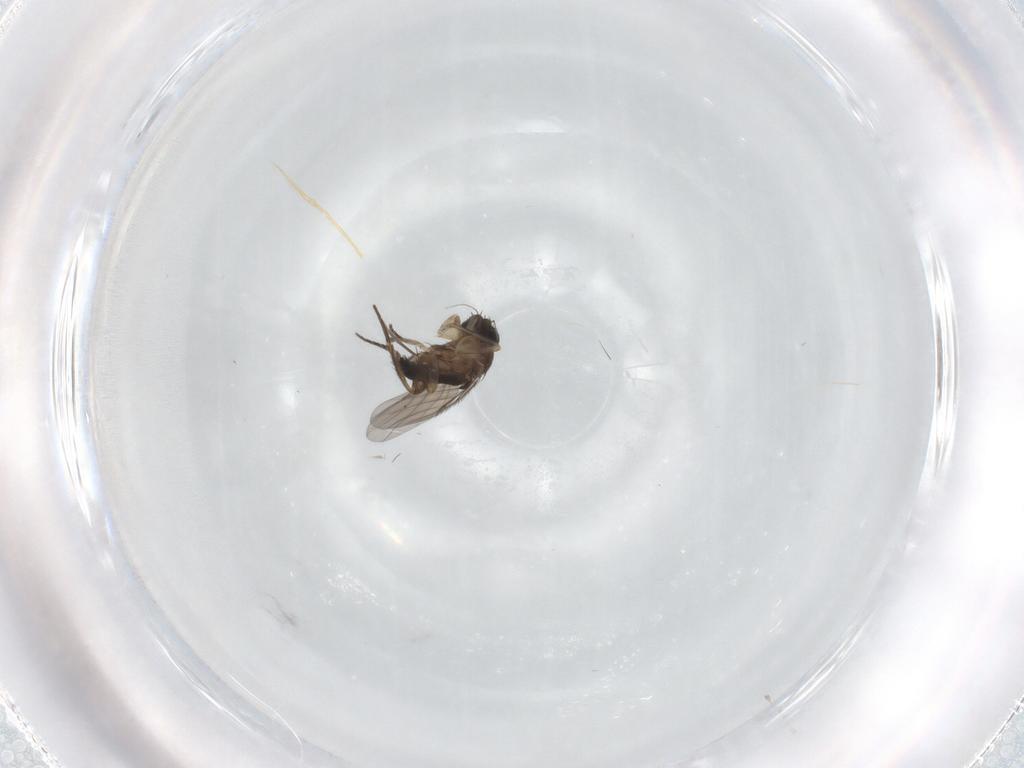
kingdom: Animalia
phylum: Arthropoda
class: Insecta
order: Diptera
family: Phoridae
